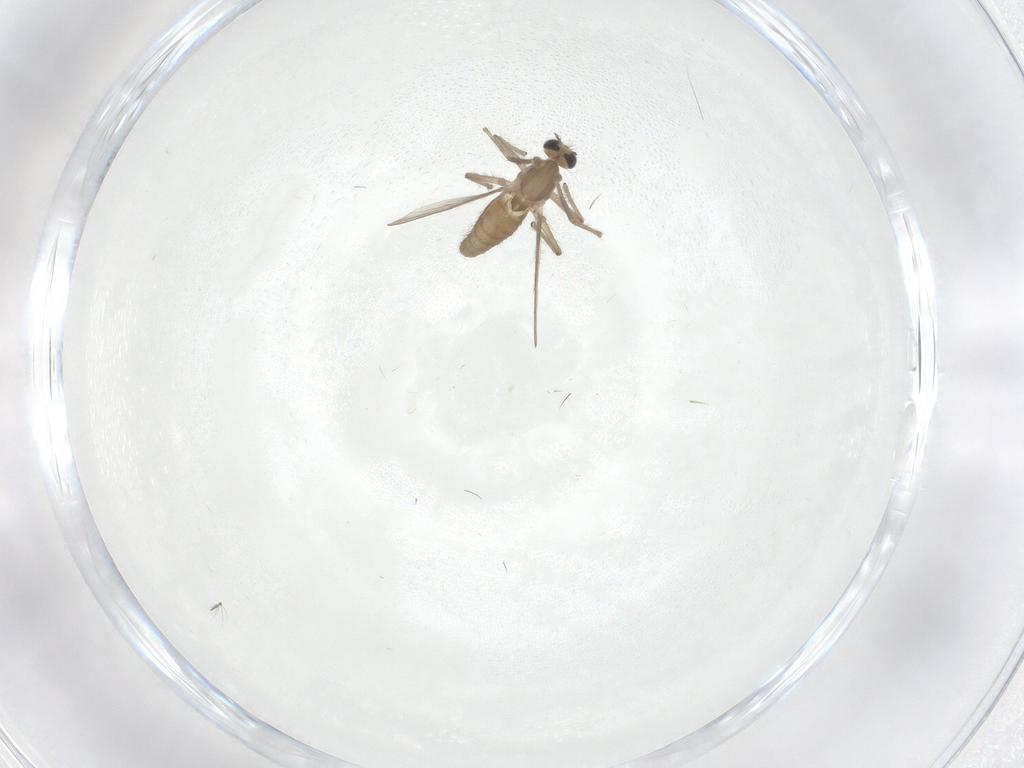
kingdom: Animalia
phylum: Arthropoda
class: Insecta
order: Diptera
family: Chironomidae
